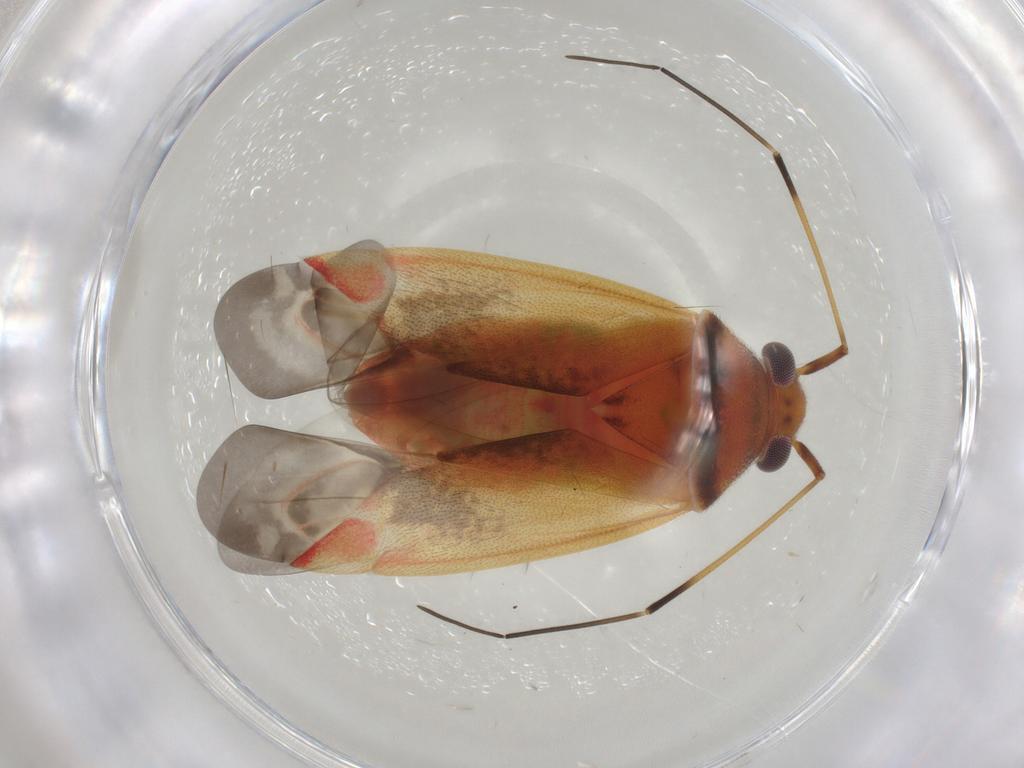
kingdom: Animalia
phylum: Arthropoda
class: Insecta
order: Hemiptera
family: Miridae
